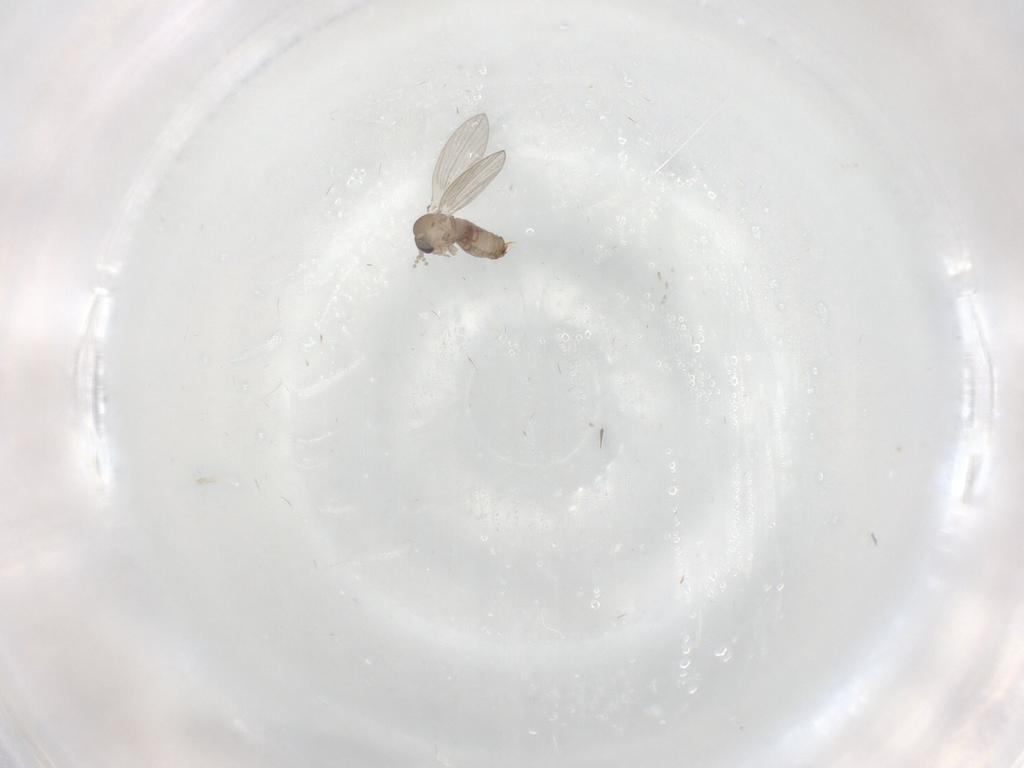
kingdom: Animalia
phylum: Arthropoda
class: Insecta
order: Diptera
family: Psychodidae
